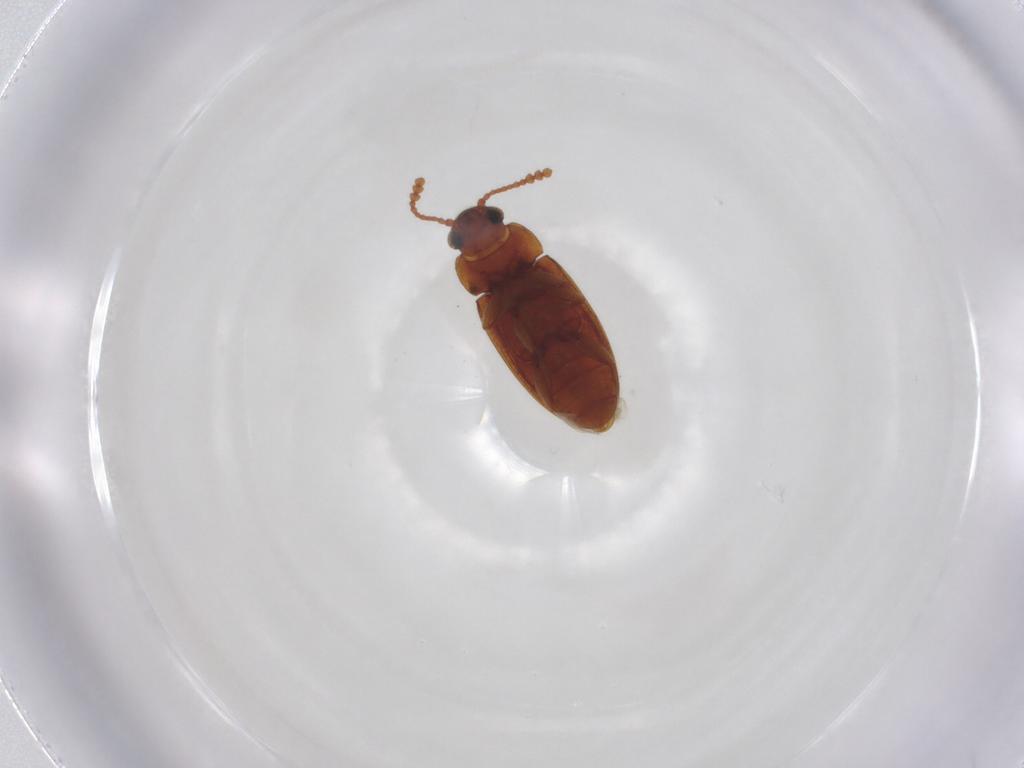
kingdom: Animalia
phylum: Arthropoda
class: Insecta
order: Coleoptera
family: Erotylidae
